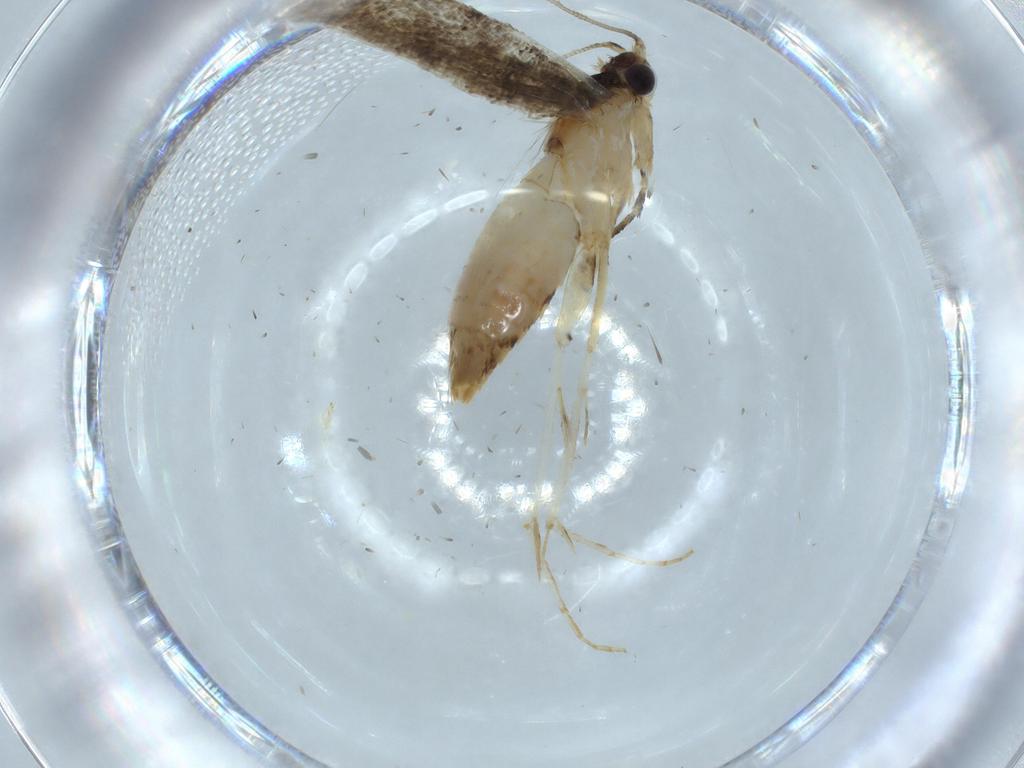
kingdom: Animalia
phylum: Arthropoda
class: Insecta
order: Lepidoptera
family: Tineidae
